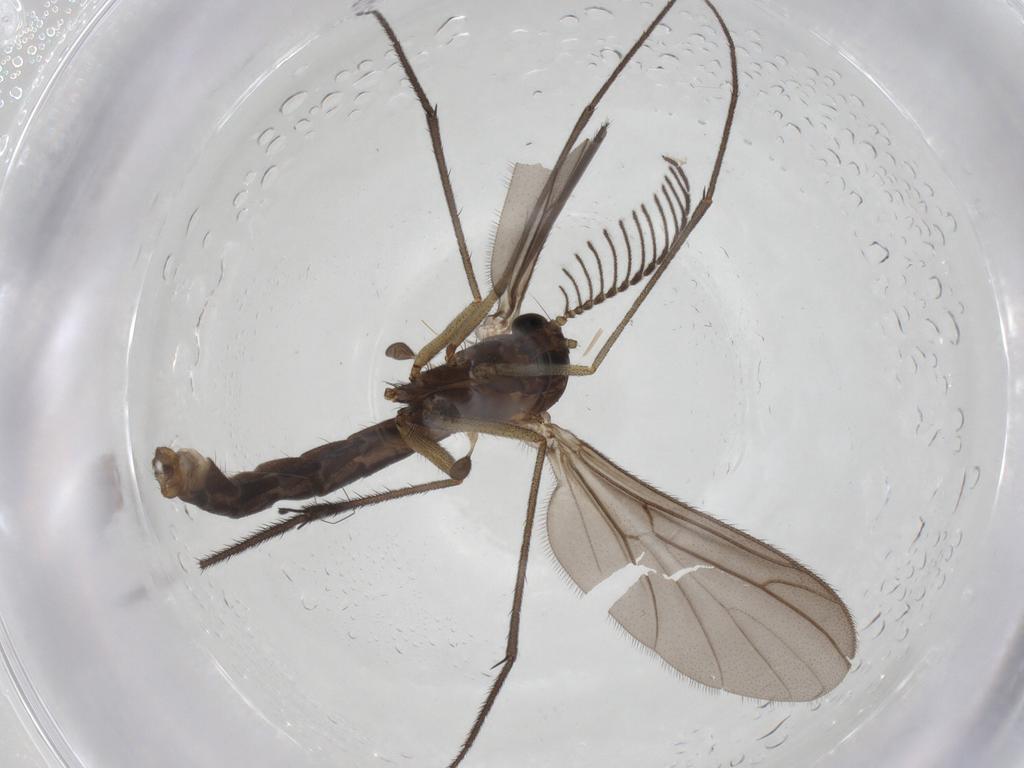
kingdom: Animalia
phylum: Arthropoda
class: Insecta
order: Diptera
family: Ditomyiidae
